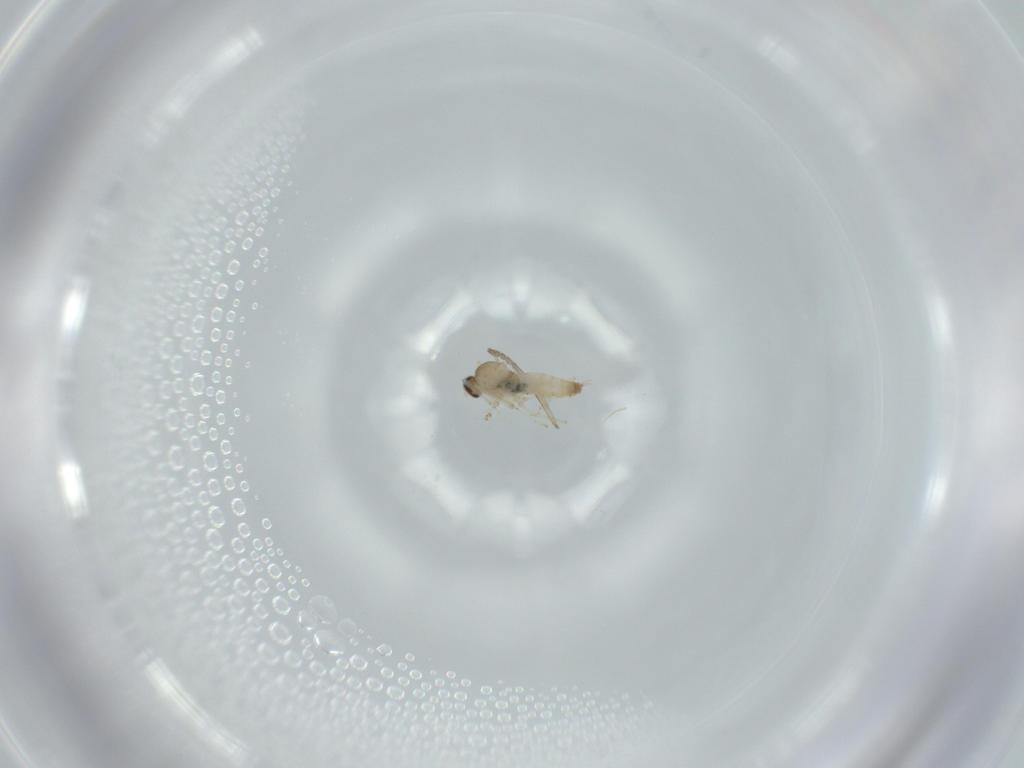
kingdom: Animalia
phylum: Arthropoda
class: Insecta
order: Diptera
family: Cecidomyiidae
